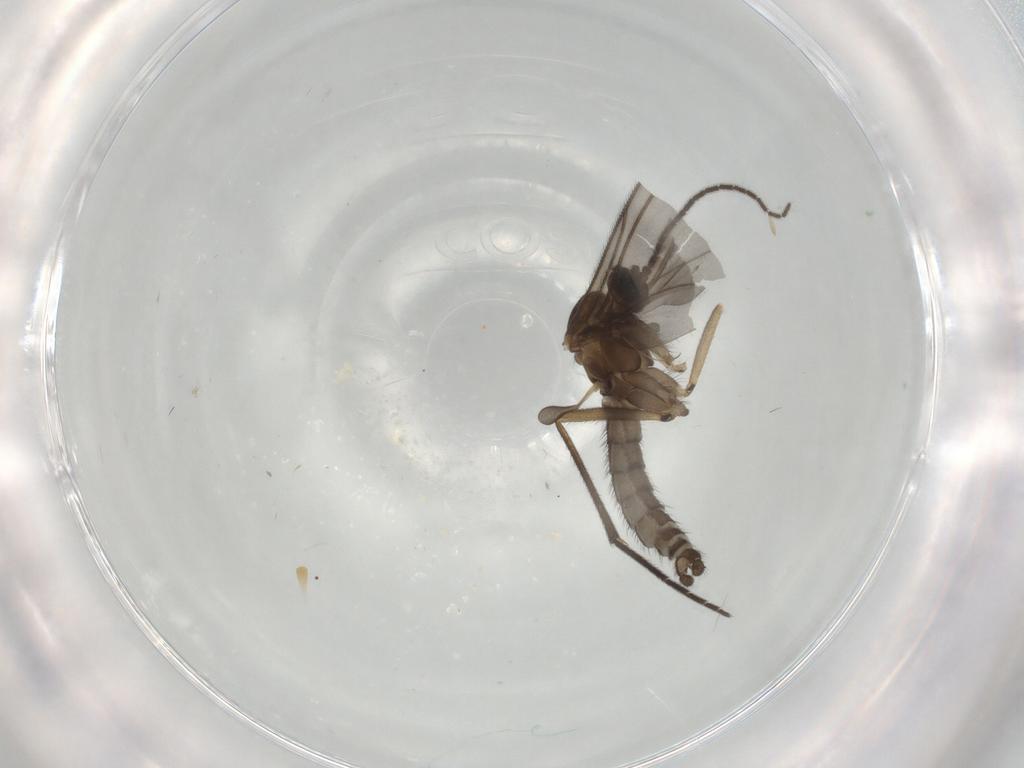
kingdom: Animalia
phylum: Arthropoda
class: Insecta
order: Diptera
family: Sciaridae
